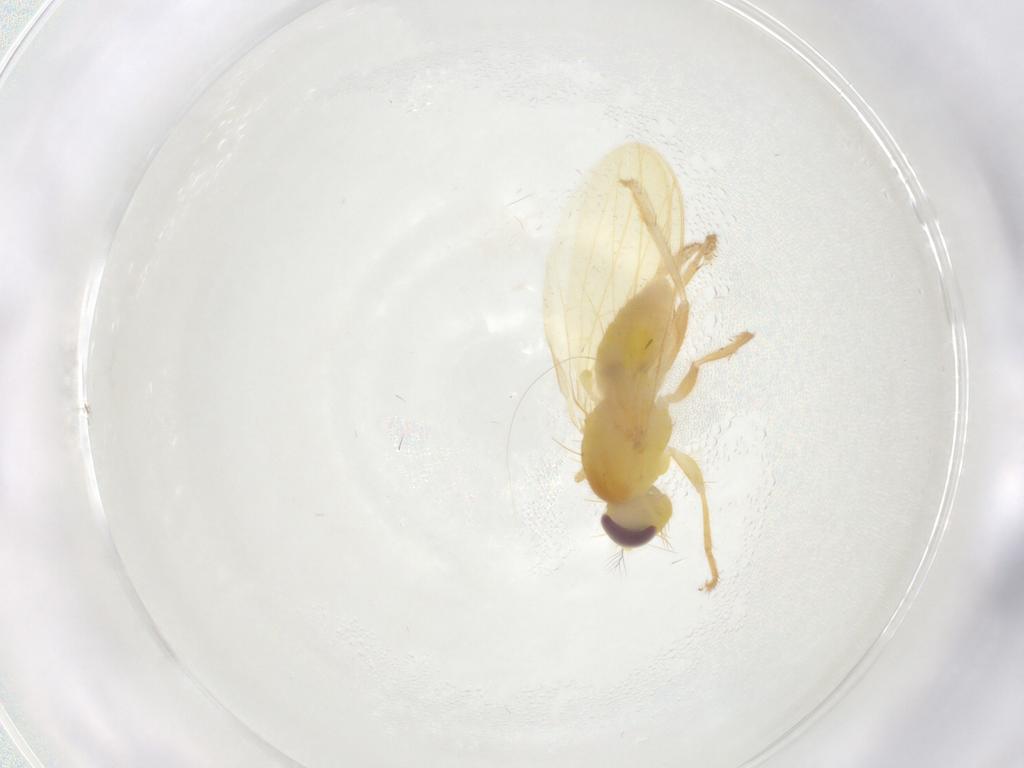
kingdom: Animalia
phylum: Arthropoda
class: Insecta
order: Diptera
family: Periscelididae
